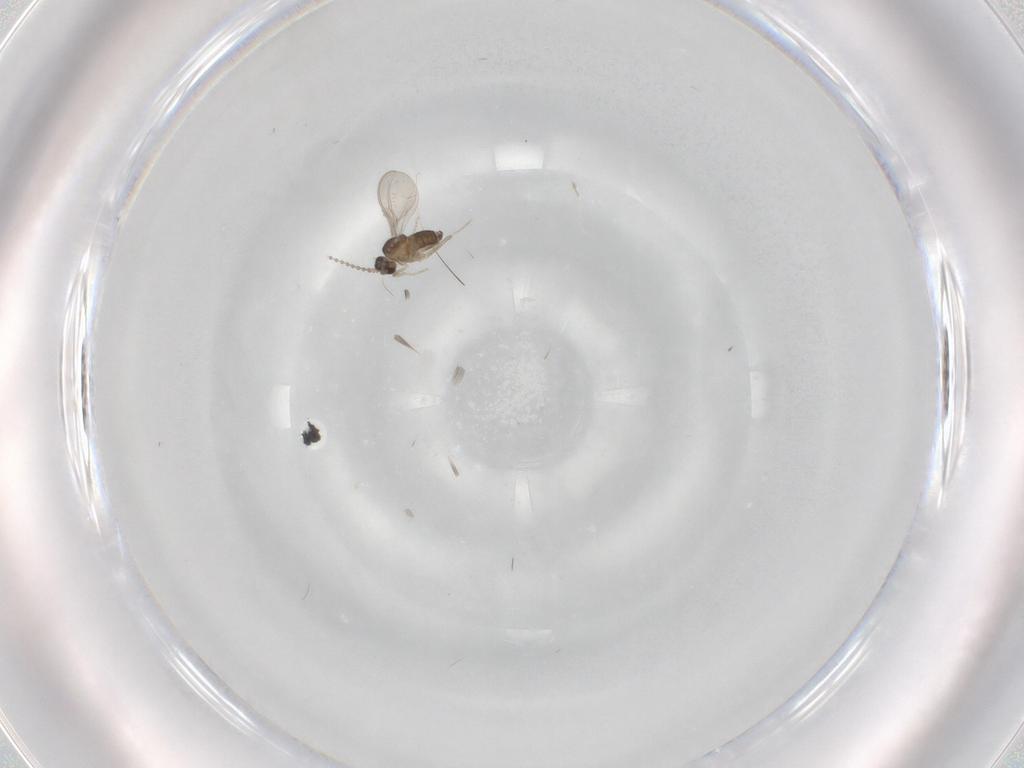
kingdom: Animalia
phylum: Arthropoda
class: Insecta
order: Diptera
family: Cecidomyiidae
